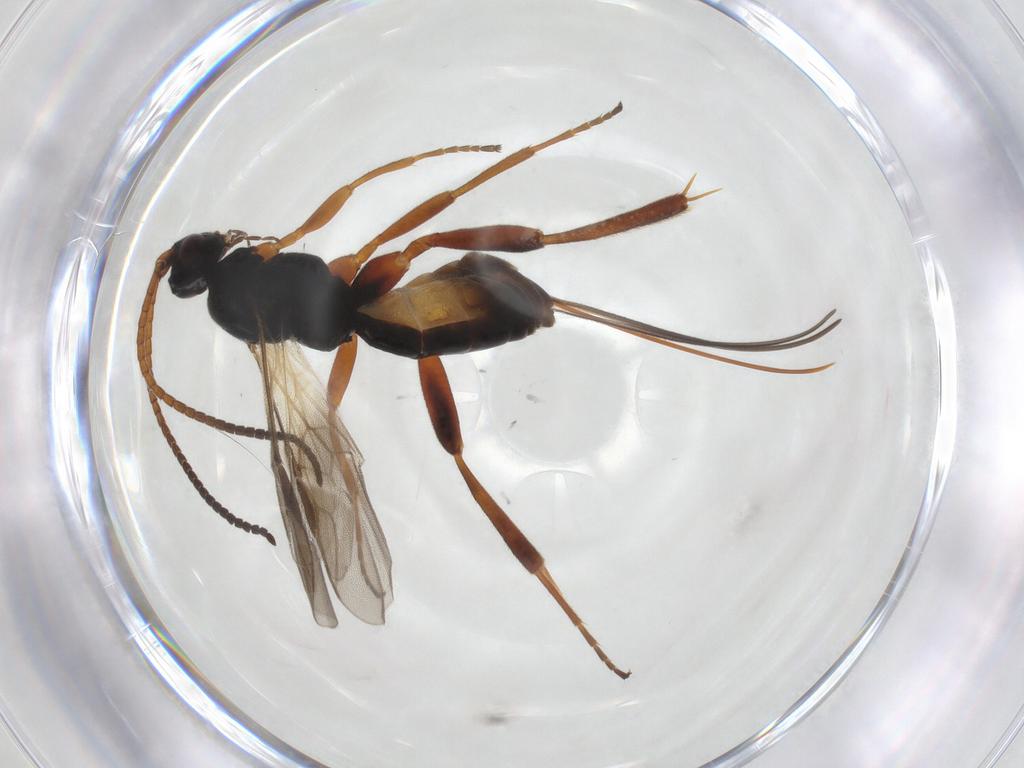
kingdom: Animalia
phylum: Arthropoda
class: Insecta
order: Hymenoptera
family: Braconidae
